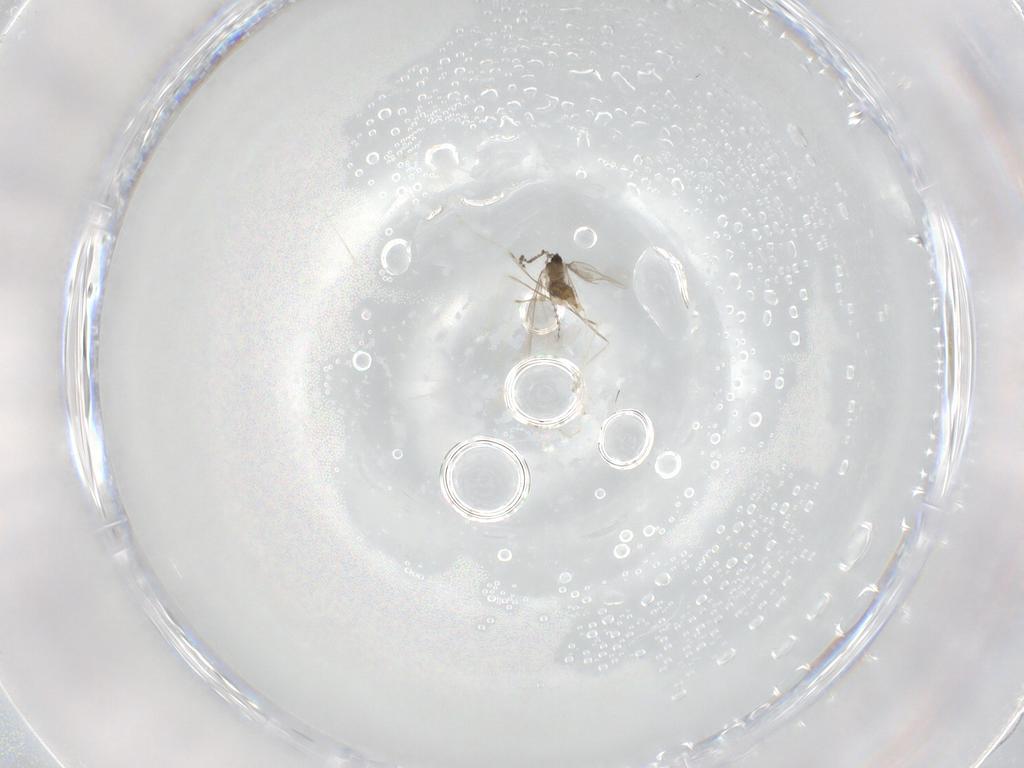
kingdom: Animalia
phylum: Arthropoda
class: Insecta
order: Diptera
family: Cecidomyiidae
